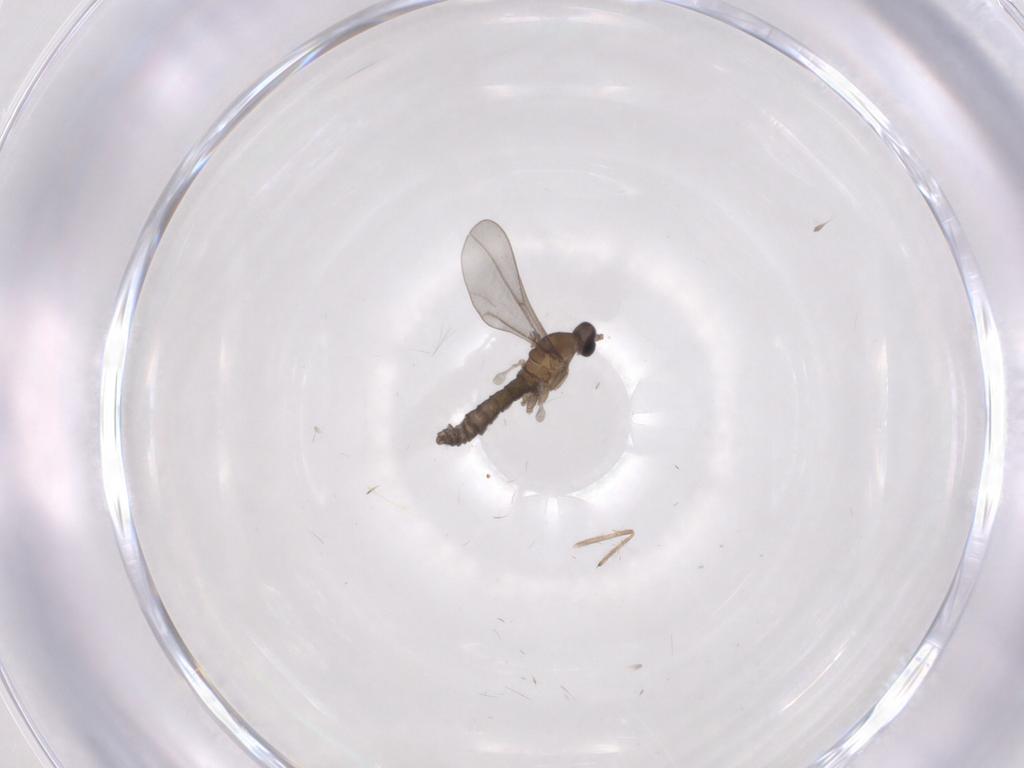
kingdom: Animalia
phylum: Arthropoda
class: Insecta
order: Diptera
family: Chironomidae
